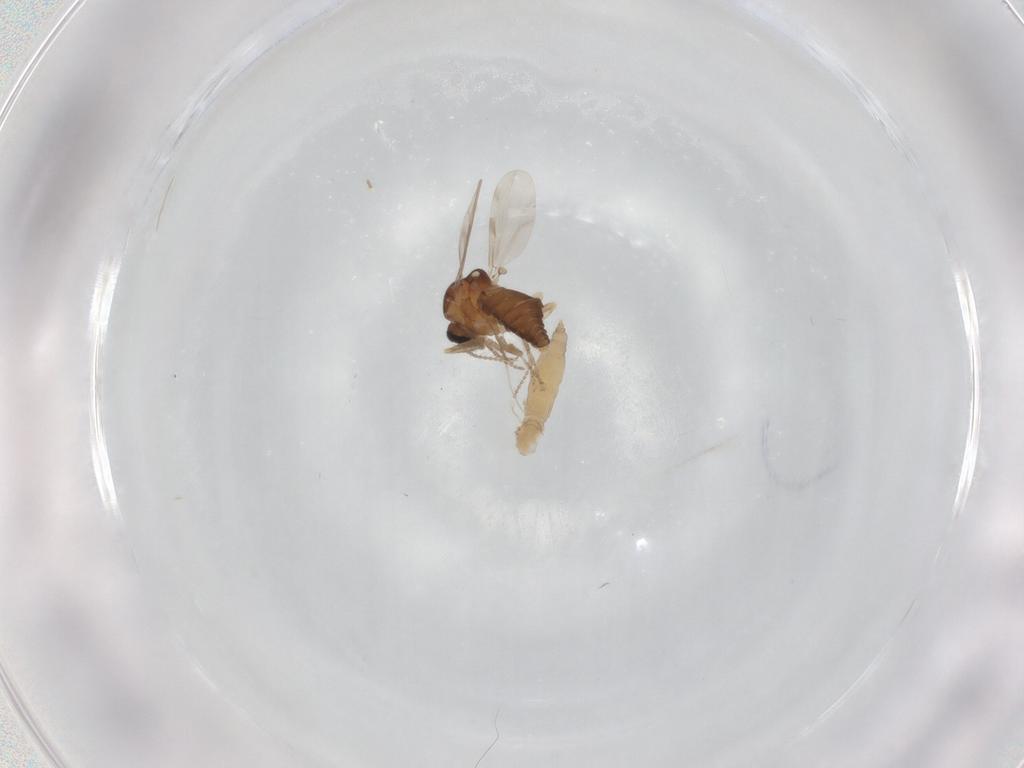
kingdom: Animalia
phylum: Arthropoda
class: Insecta
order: Diptera
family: Ceratopogonidae
